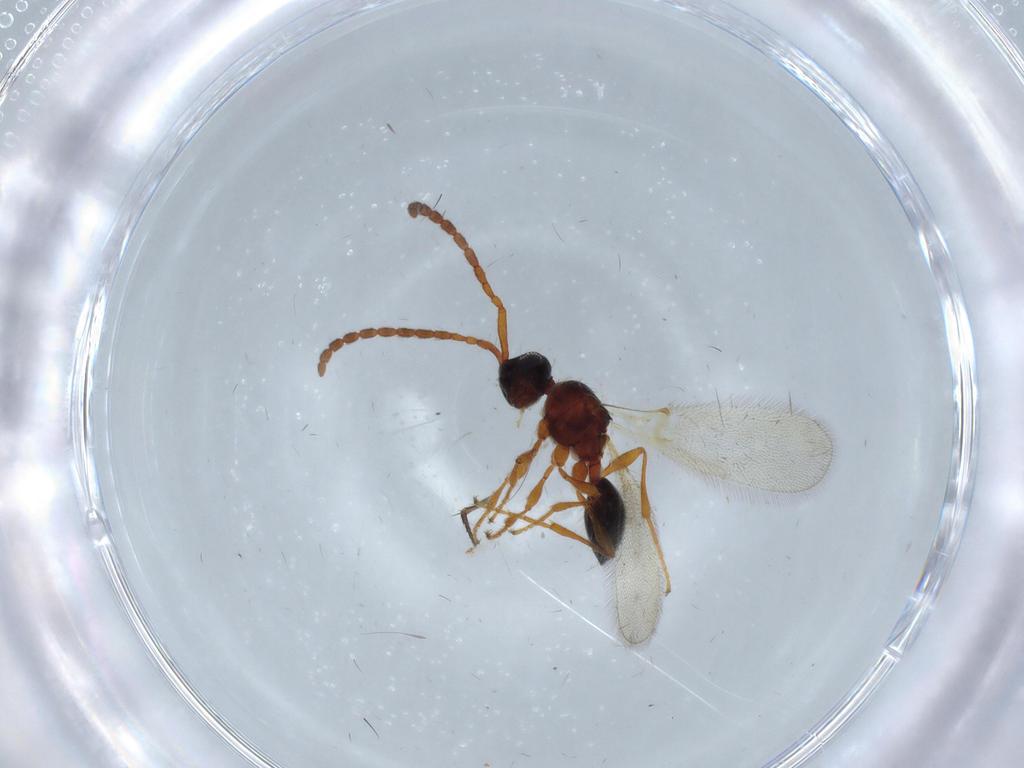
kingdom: Animalia
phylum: Arthropoda
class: Insecta
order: Hymenoptera
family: Diapriidae
